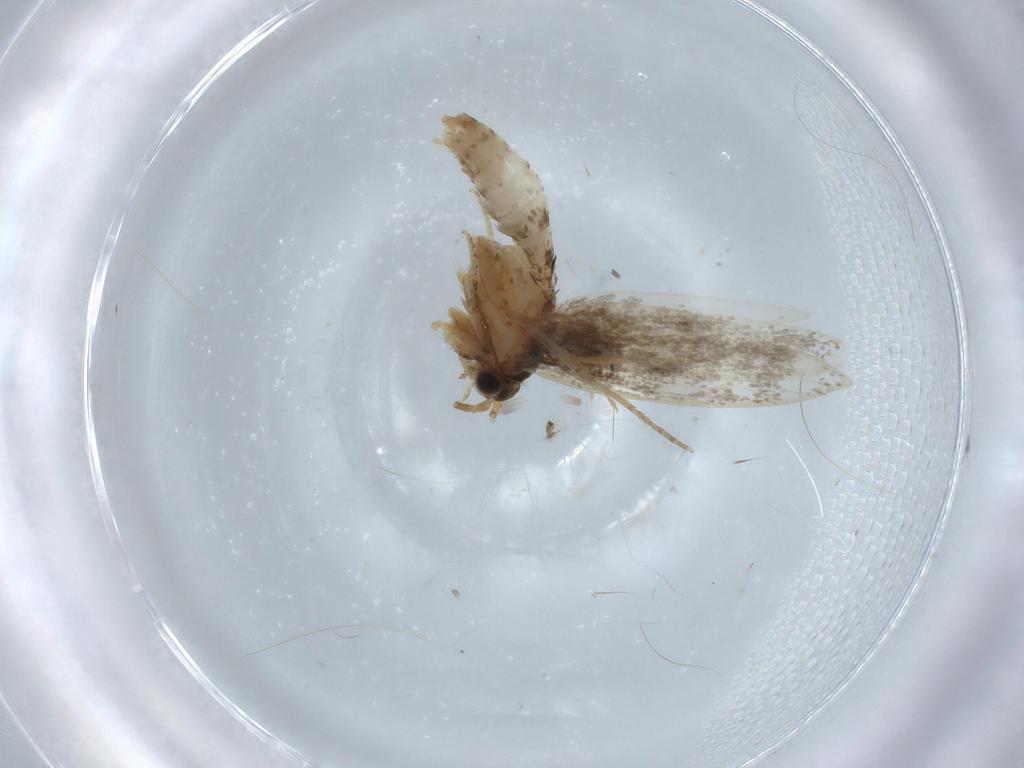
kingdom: Animalia
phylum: Arthropoda
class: Insecta
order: Lepidoptera
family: Tineidae
